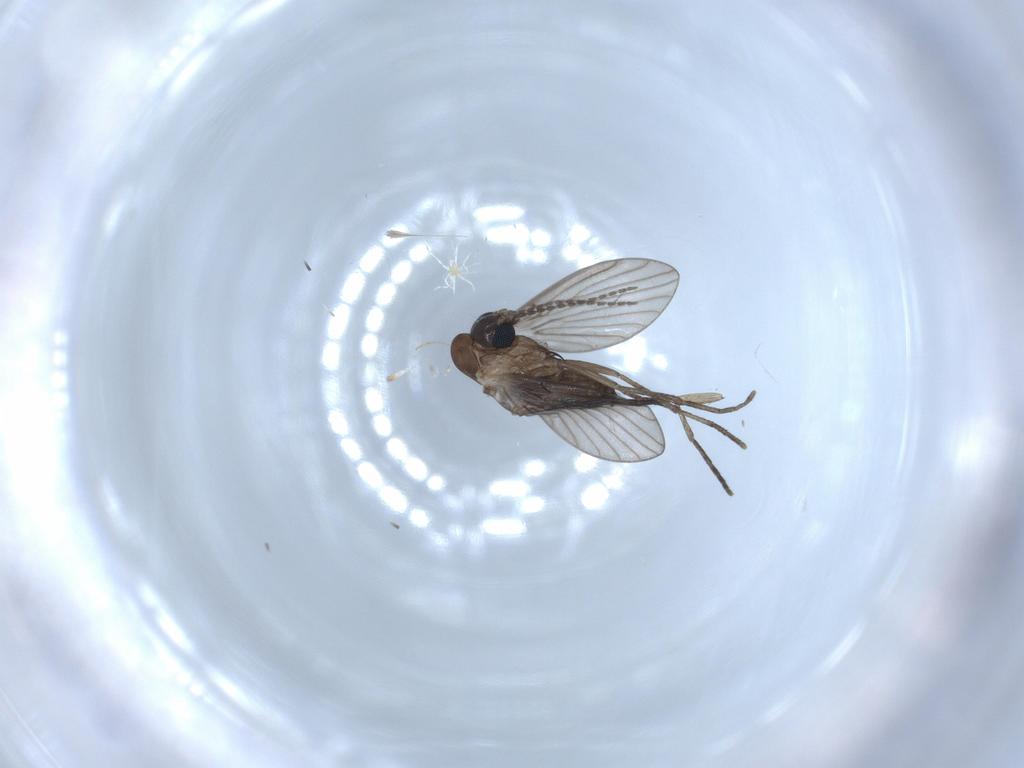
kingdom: Animalia
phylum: Arthropoda
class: Insecta
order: Diptera
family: Psychodidae
